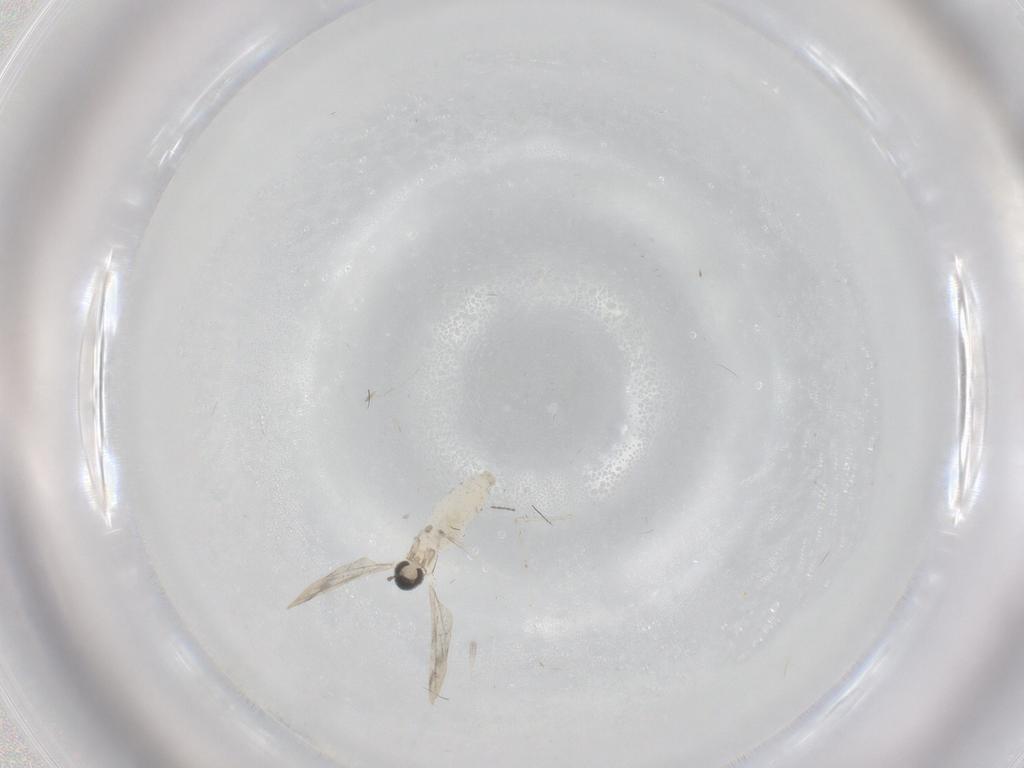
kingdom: Animalia
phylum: Arthropoda
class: Insecta
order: Diptera
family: Cecidomyiidae
